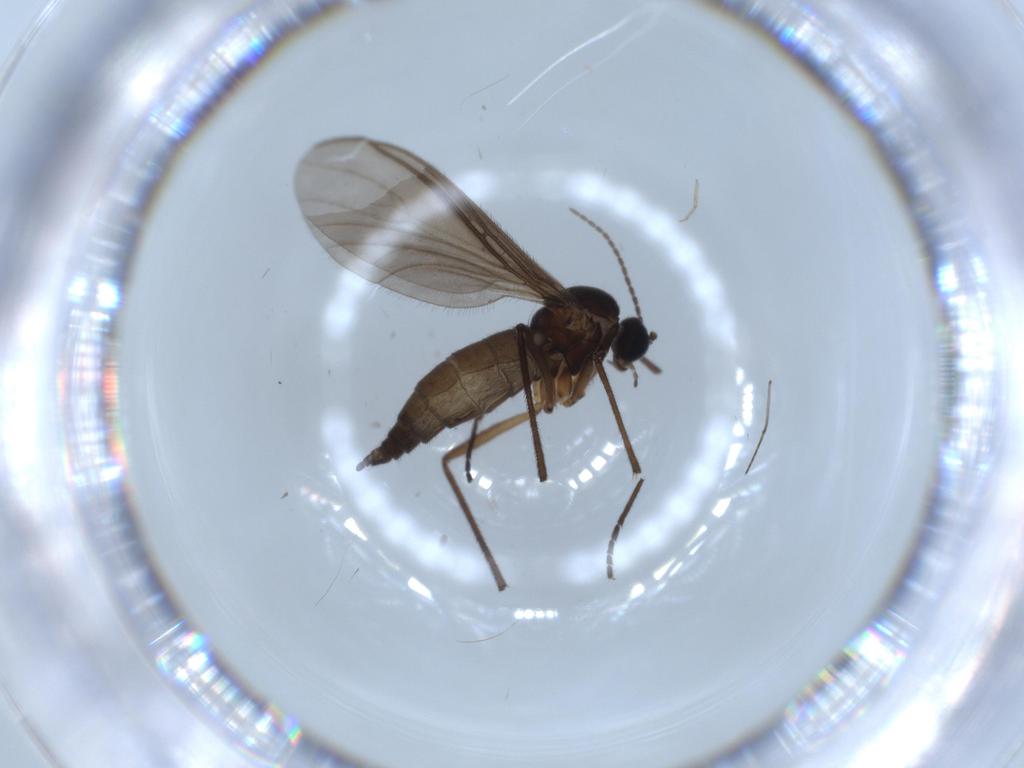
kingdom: Animalia
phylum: Arthropoda
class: Insecta
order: Diptera
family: Sciaridae
